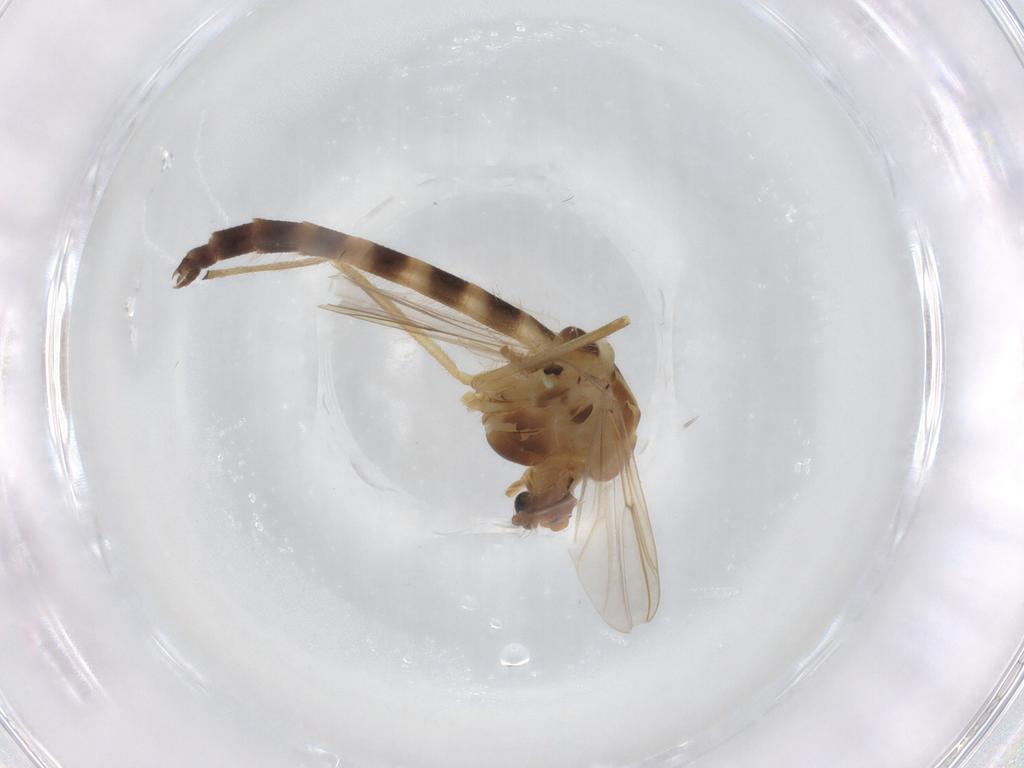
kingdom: Animalia
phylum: Arthropoda
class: Insecta
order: Diptera
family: Chironomidae
